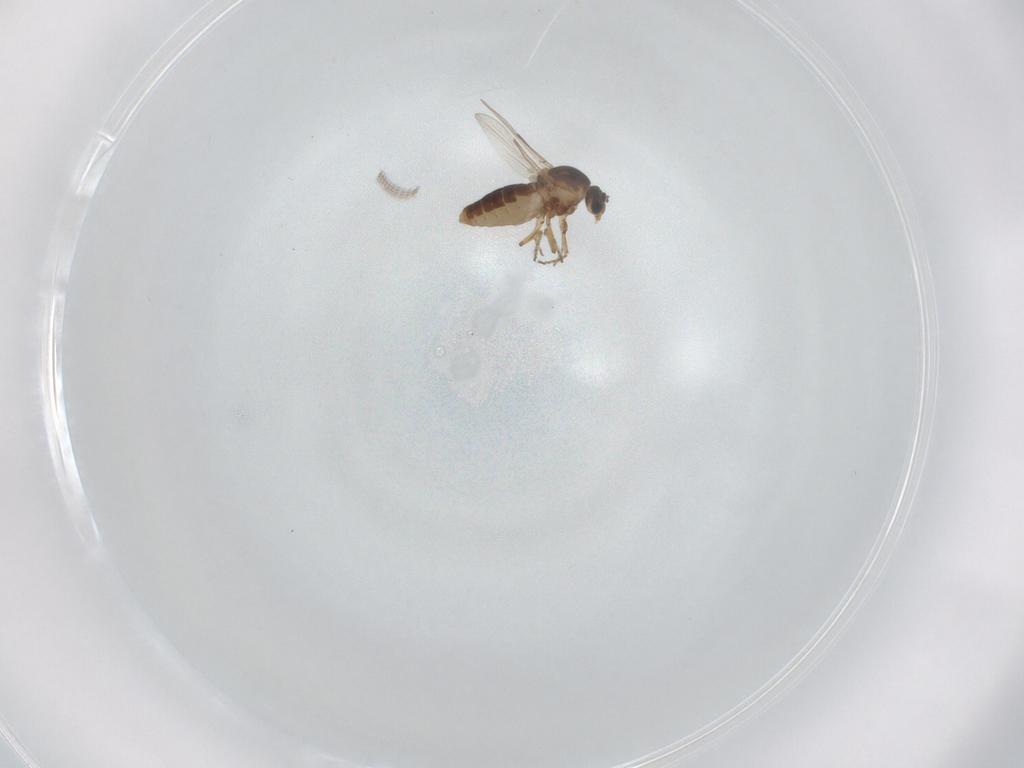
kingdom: Animalia
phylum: Arthropoda
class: Insecta
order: Diptera
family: Ceratopogonidae
